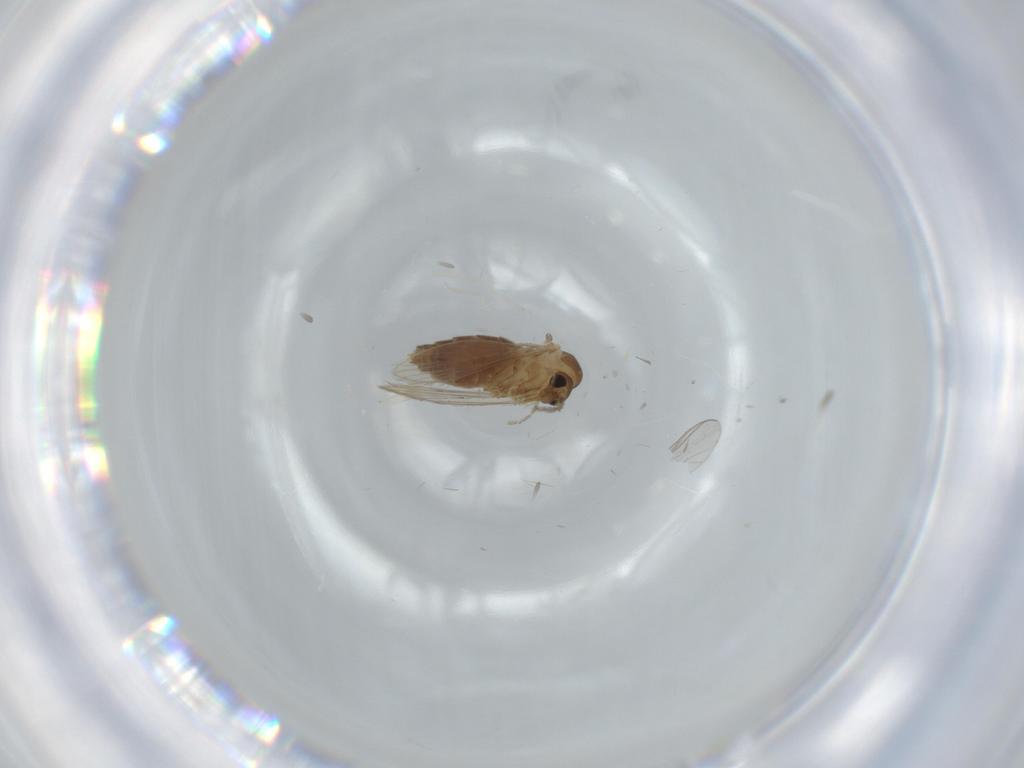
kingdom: Animalia
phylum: Arthropoda
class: Insecta
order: Diptera
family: Psychodidae
